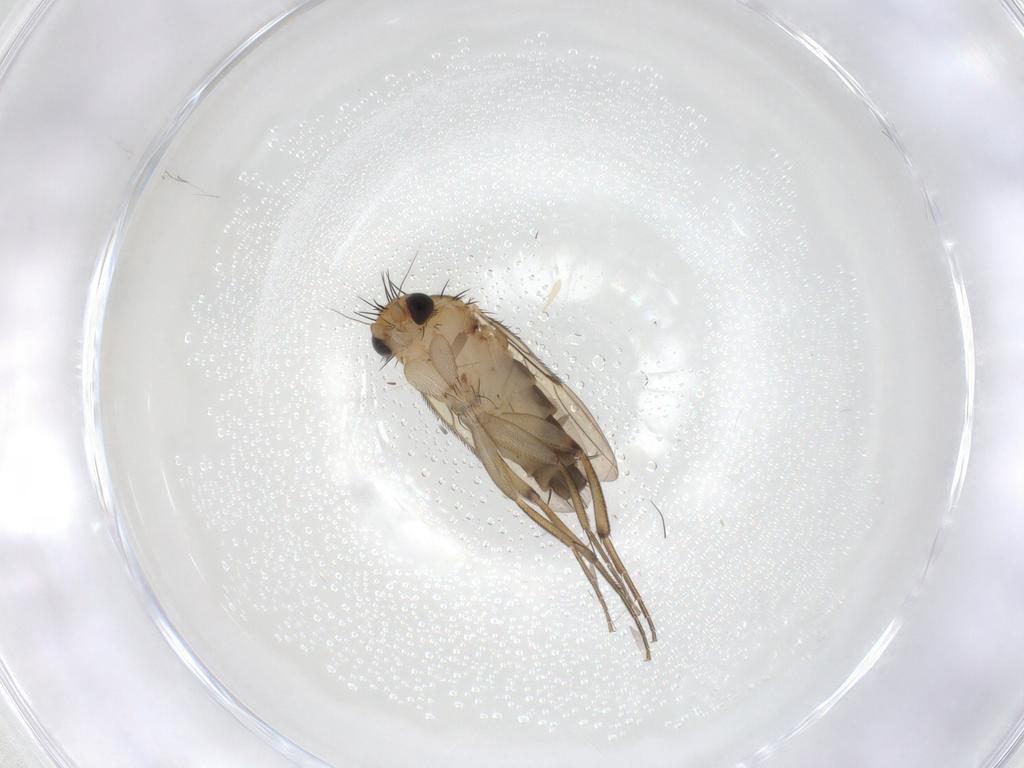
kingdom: Animalia
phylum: Arthropoda
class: Insecta
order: Diptera
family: Phoridae
